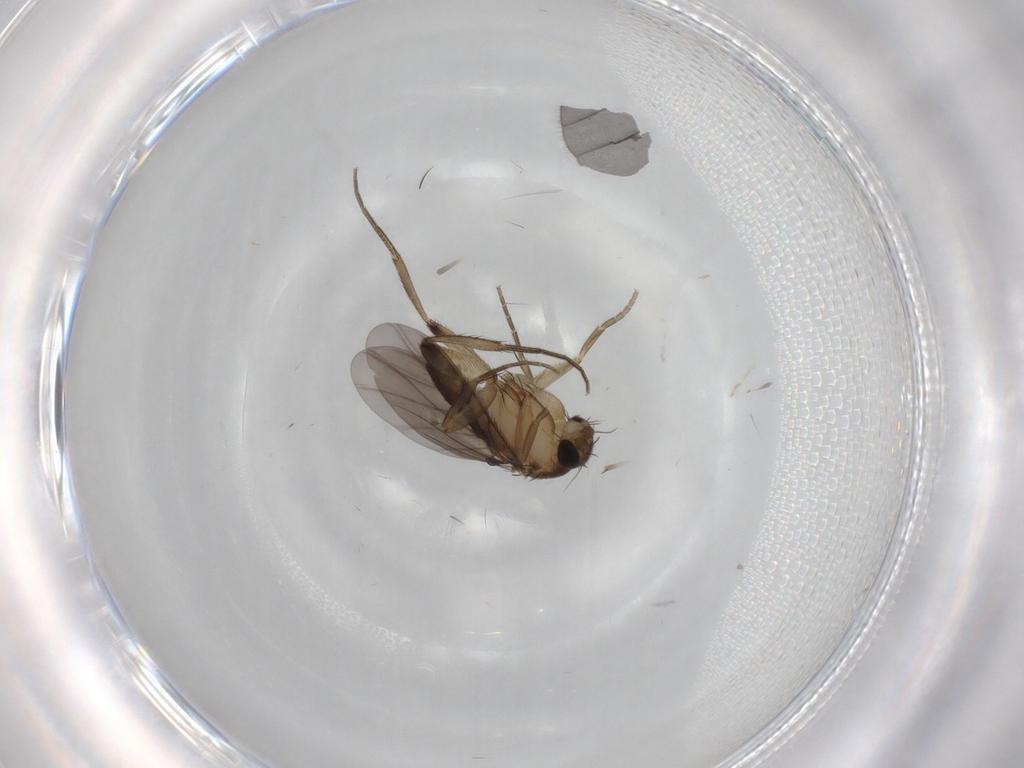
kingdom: Animalia
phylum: Arthropoda
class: Insecta
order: Diptera
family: Phoridae
